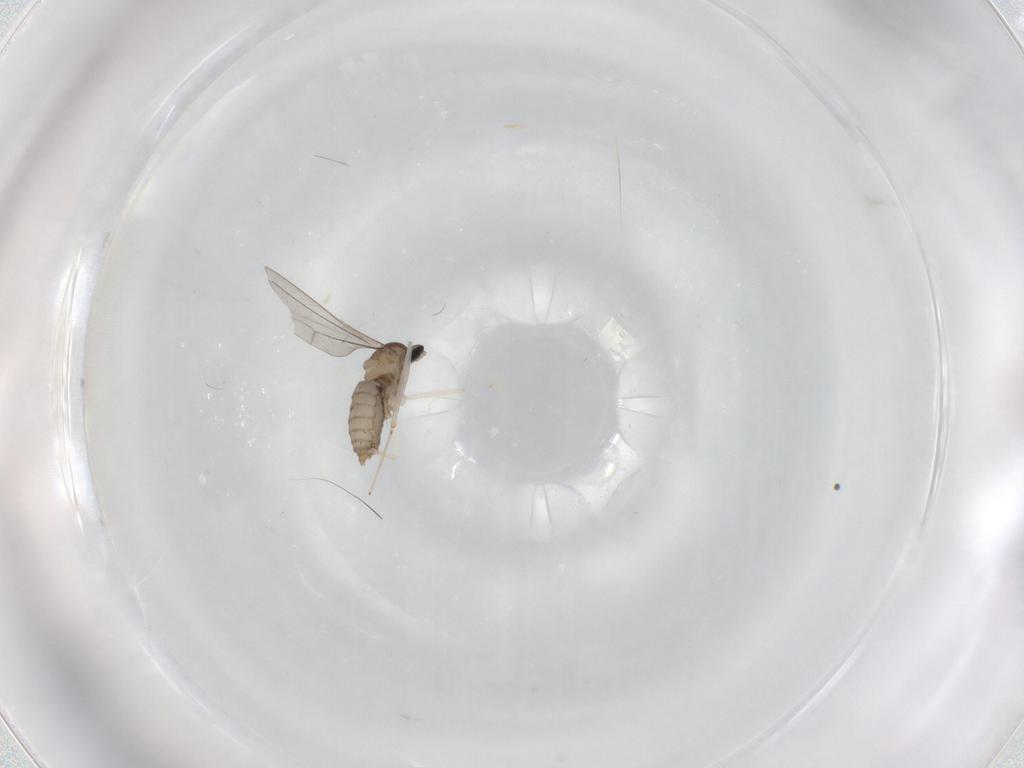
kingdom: Animalia
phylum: Arthropoda
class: Insecta
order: Diptera
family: Cecidomyiidae
